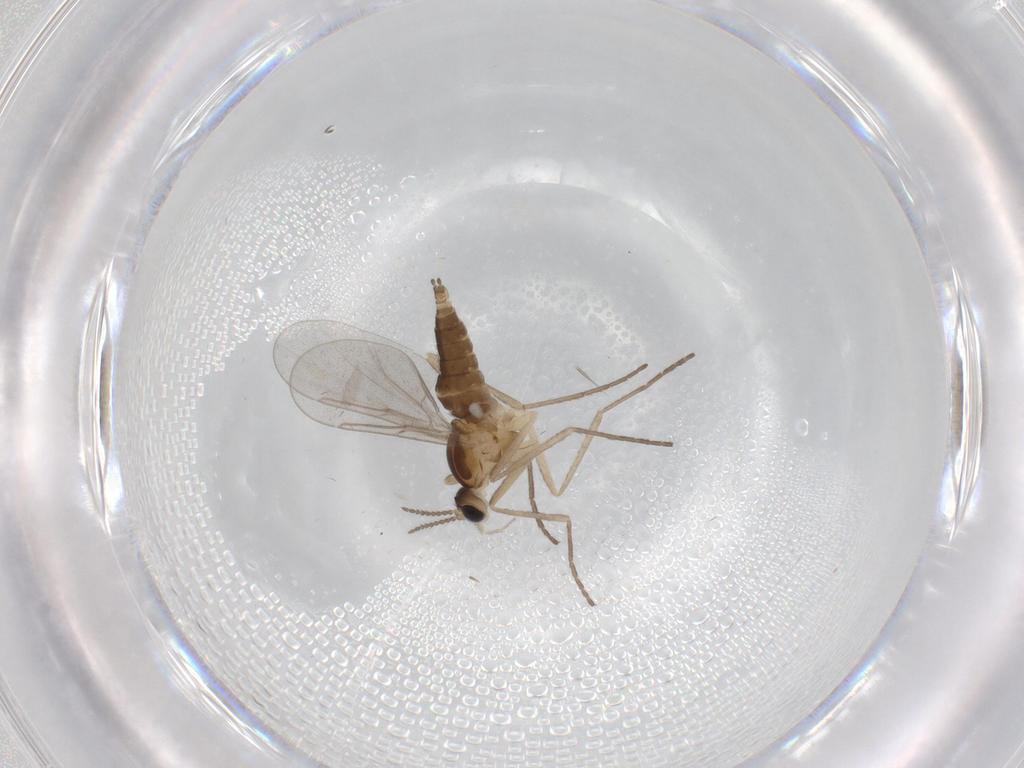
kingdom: Animalia
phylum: Arthropoda
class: Insecta
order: Diptera
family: Cecidomyiidae
